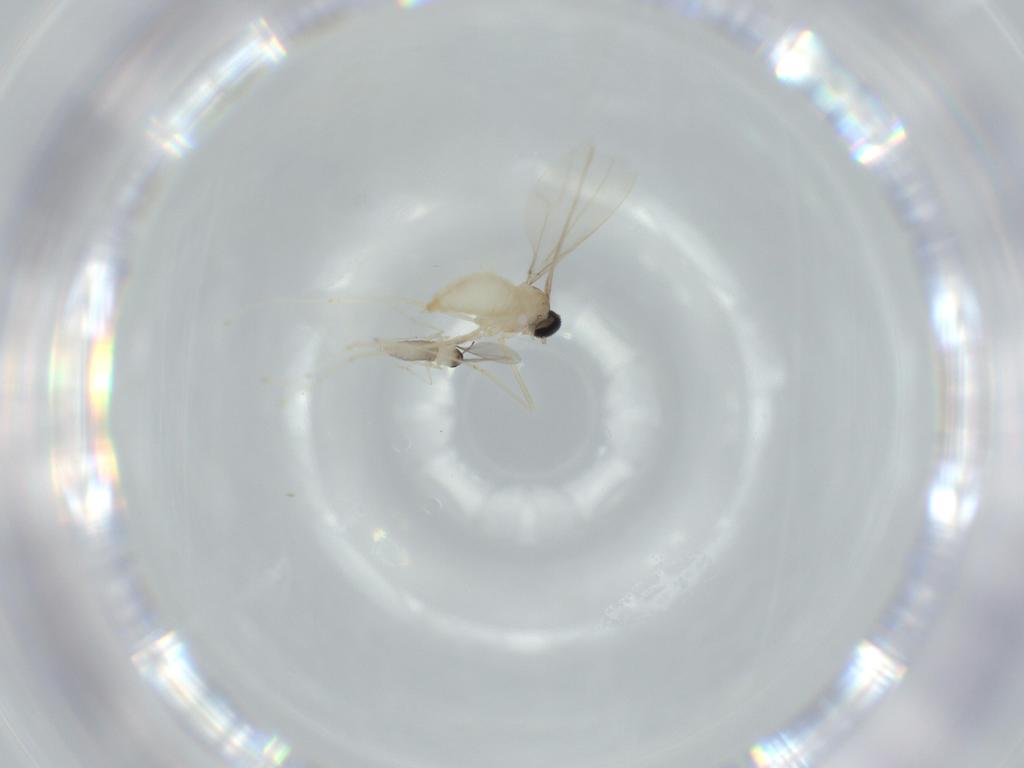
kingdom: Animalia
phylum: Arthropoda
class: Insecta
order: Diptera
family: Cecidomyiidae
